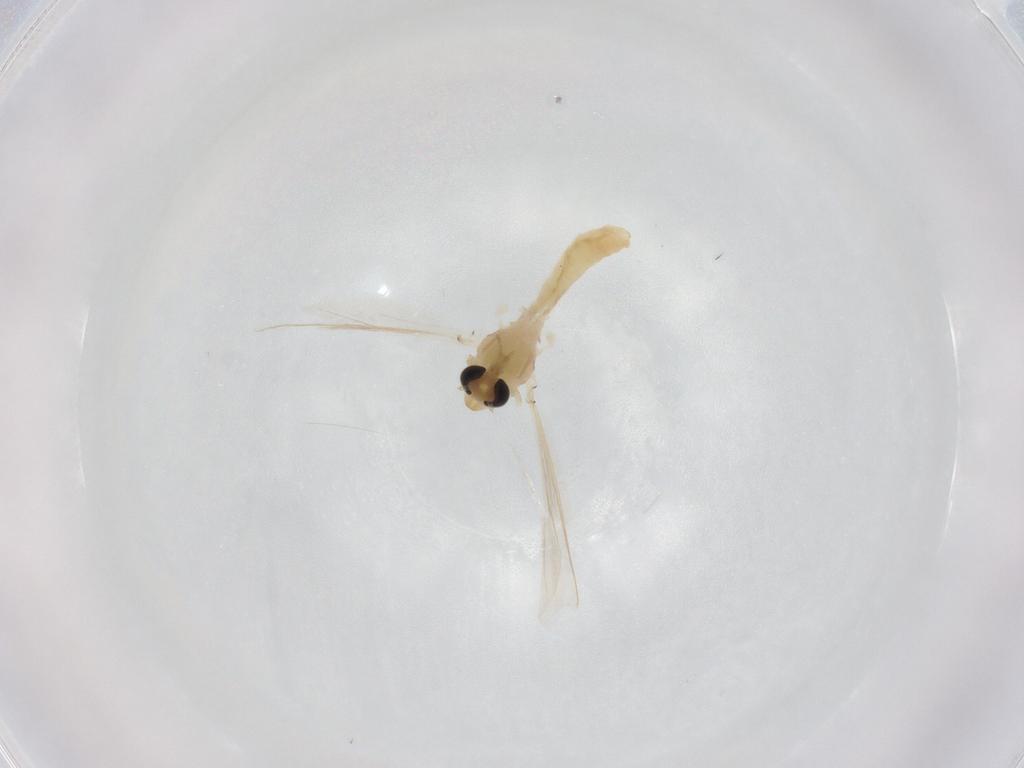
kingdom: Animalia
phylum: Arthropoda
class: Insecta
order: Diptera
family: Chironomidae
